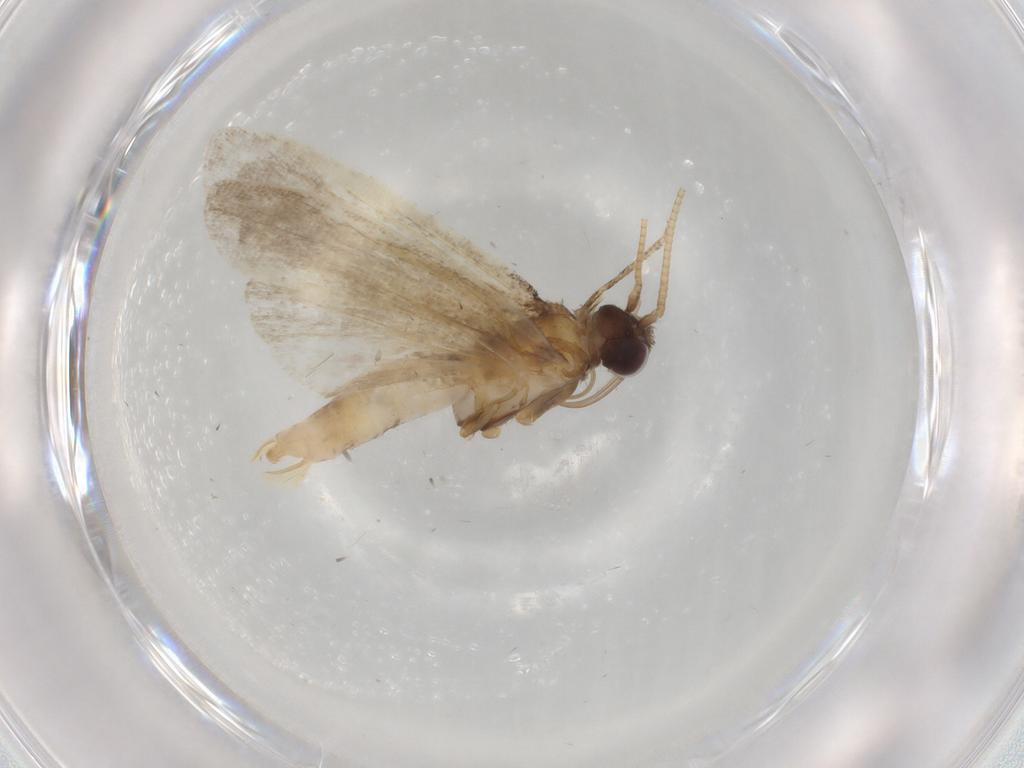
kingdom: Animalia
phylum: Arthropoda
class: Insecta
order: Lepidoptera
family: Noctuidae
